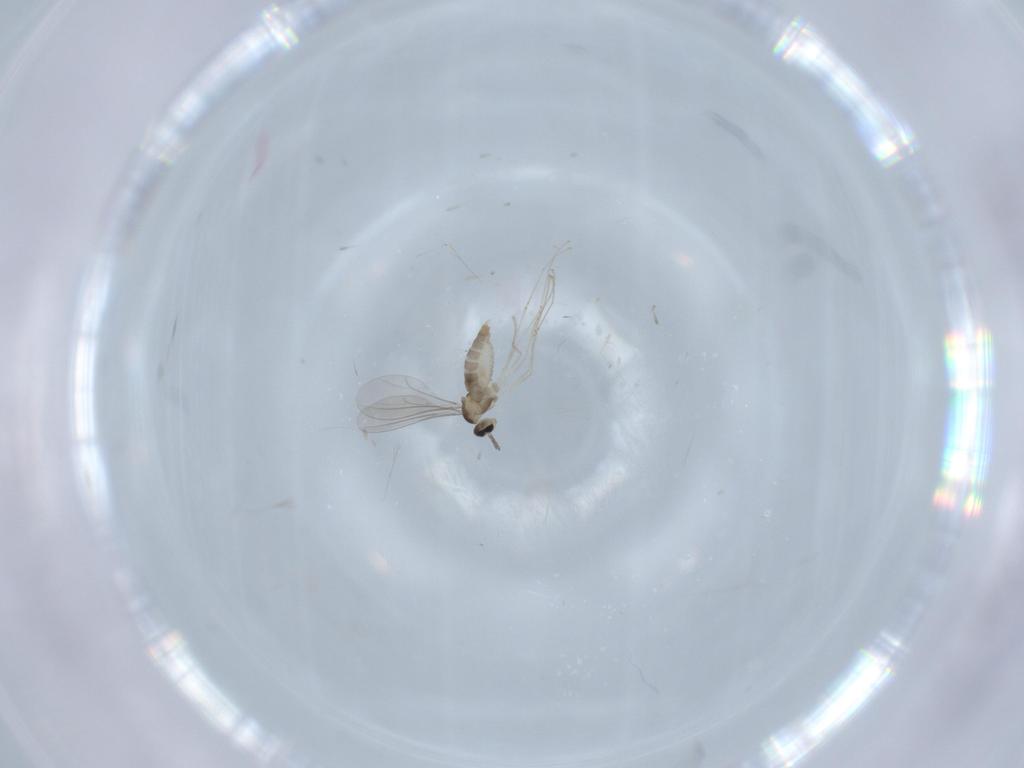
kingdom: Animalia
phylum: Arthropoda
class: Insecta
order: Diptera
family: Cecidomyiidae
